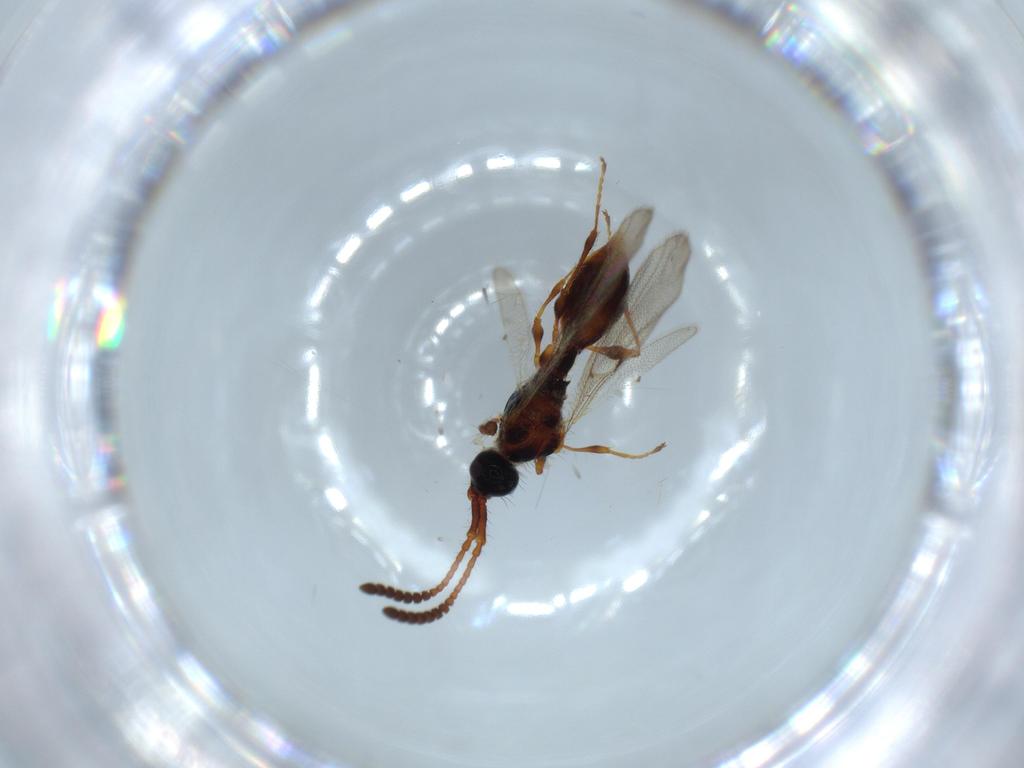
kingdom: Animalia
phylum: Arthropoda
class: Insecta
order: Hymenoptera
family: Diapriidae
